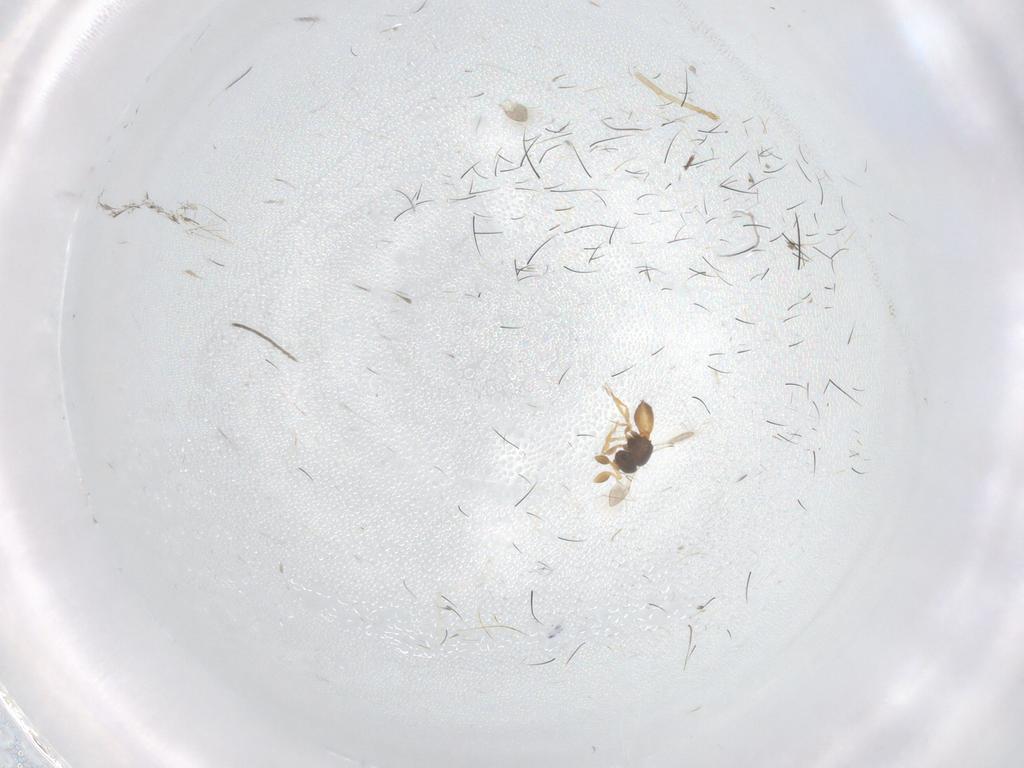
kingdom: Animalia
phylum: Arthropoda
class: Insecta
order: Hymenoptera
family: Scelionidae
